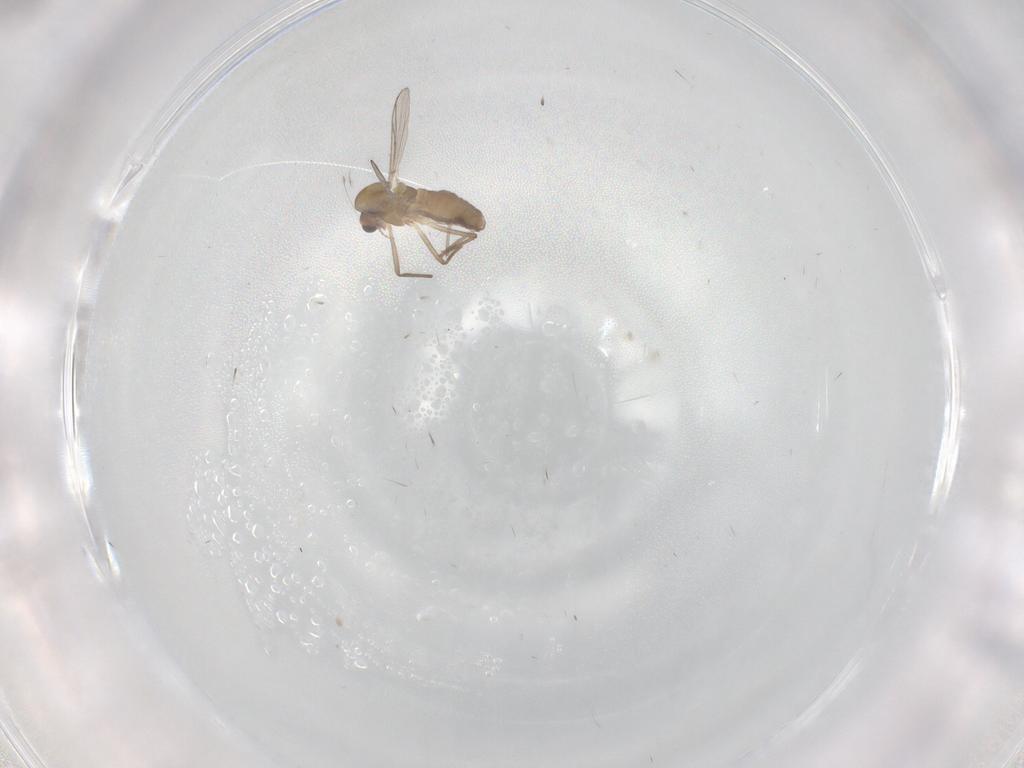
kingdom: Animalia
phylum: Arthropoda
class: Insecta
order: Diptera
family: Chironomidae
